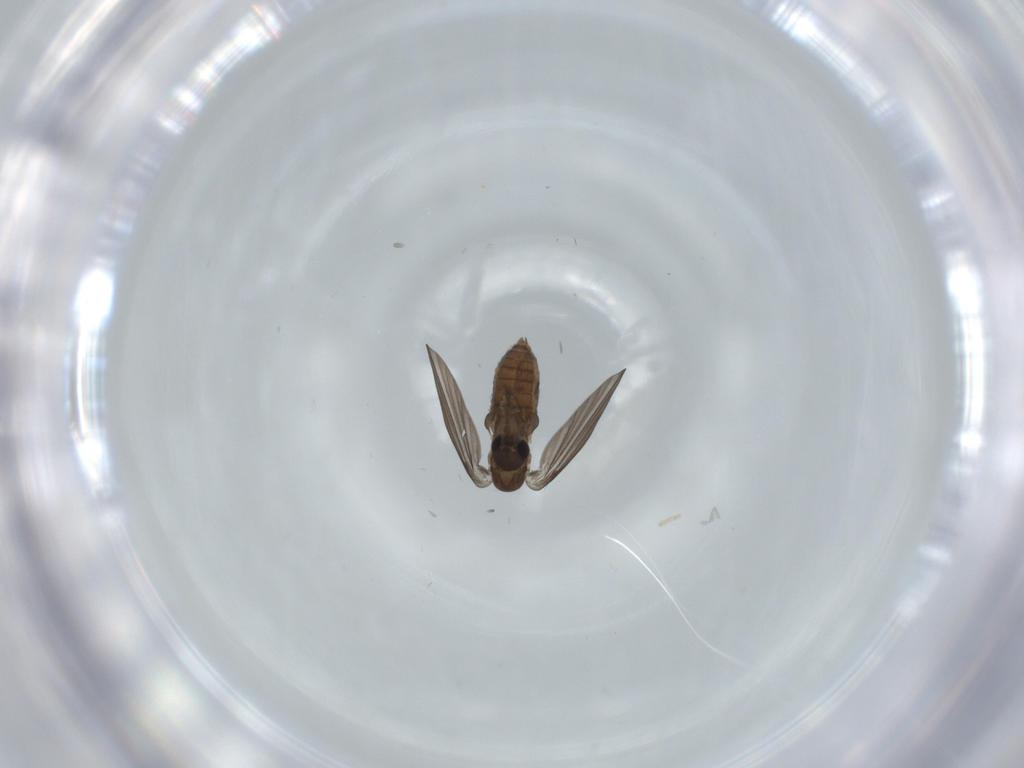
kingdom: Animalia
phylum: Arthropoda
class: Insecta
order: Diptera
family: Psychodidae
